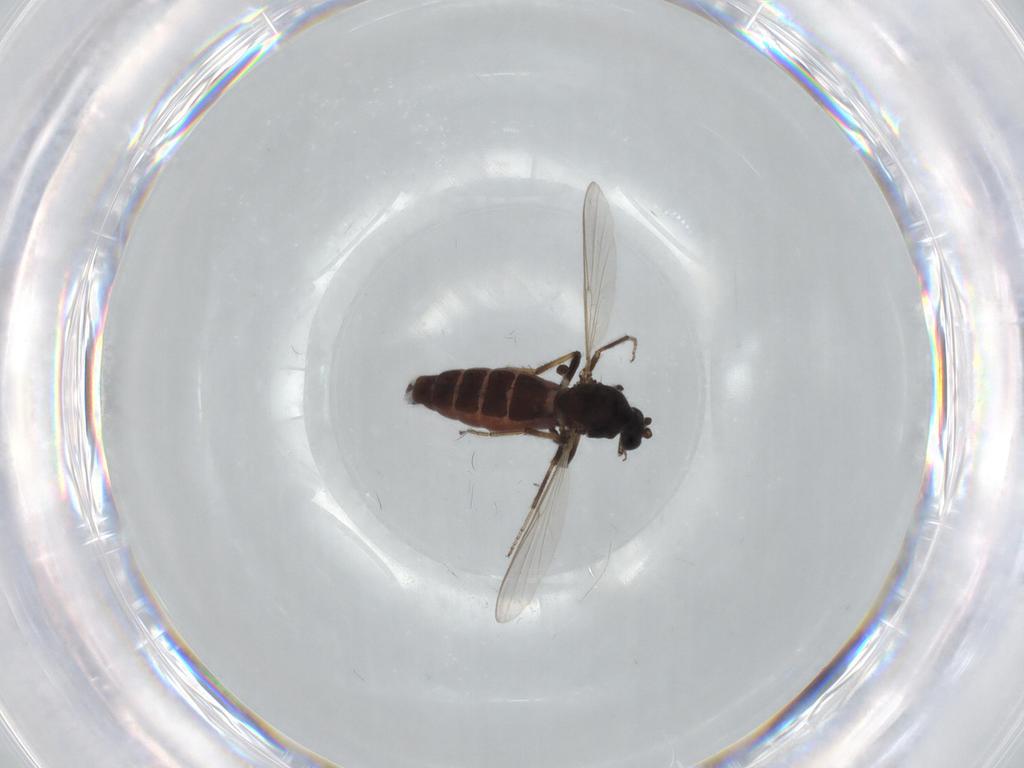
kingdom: Animalia
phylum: Arthropoda
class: Insecta
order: Diptera
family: Ceratopogonidae
